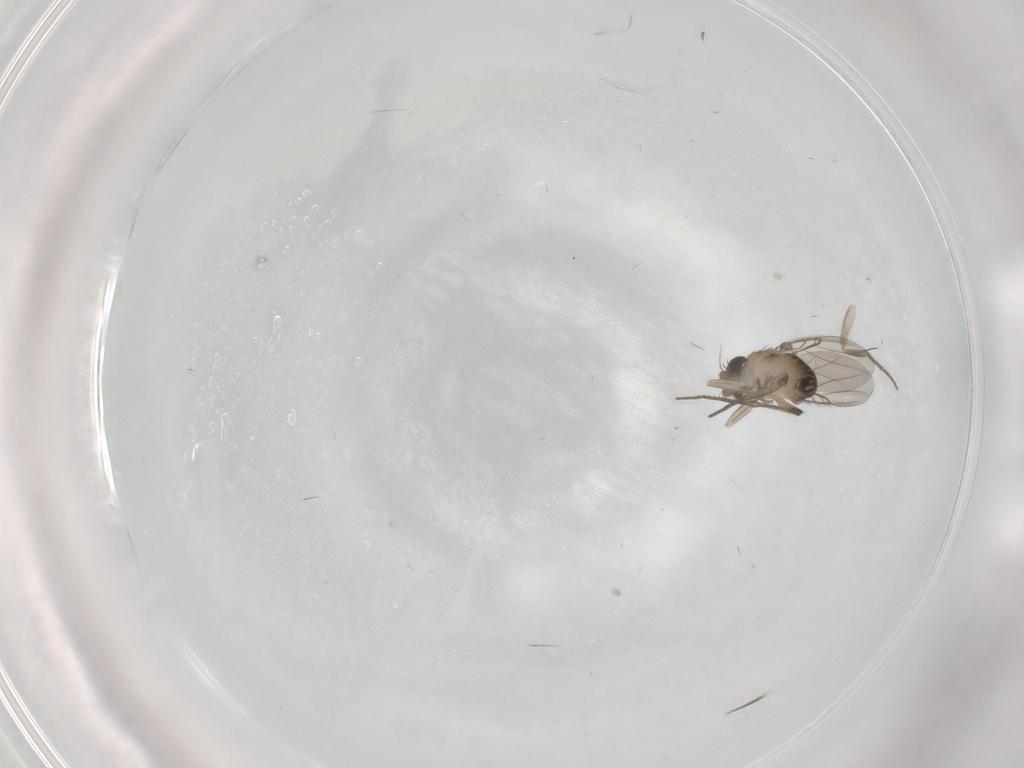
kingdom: Animalia
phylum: Arthropoda
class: Insecta
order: Diptera
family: Phoridae
